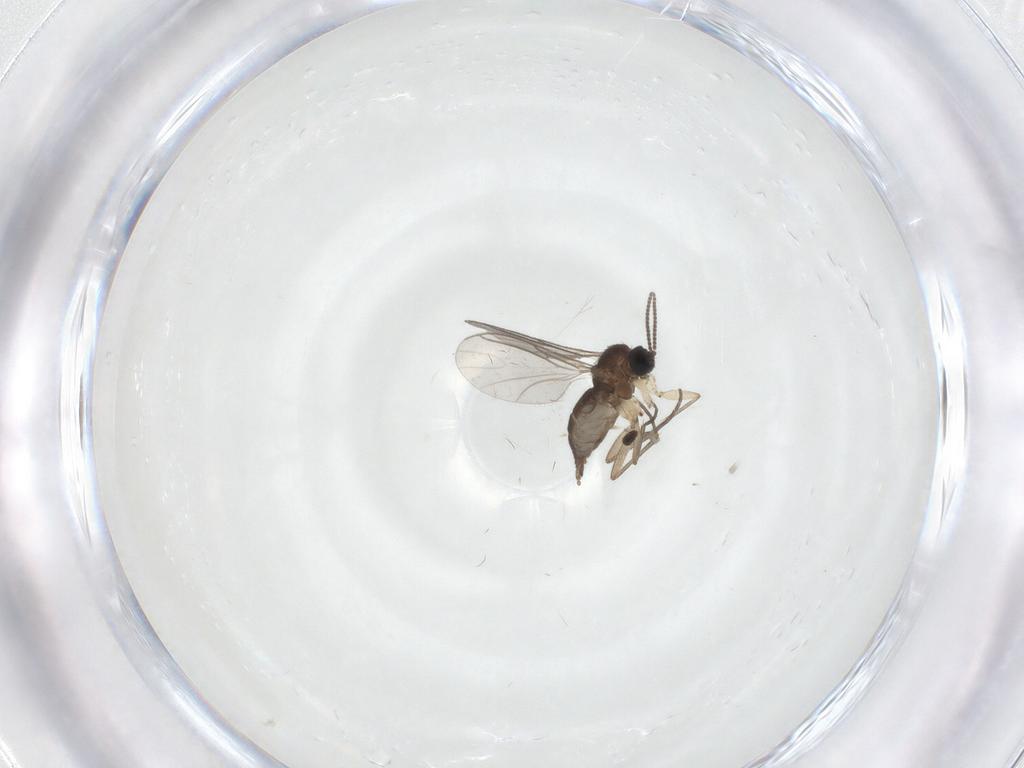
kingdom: Animalia
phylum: Arthropoda
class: Insecta
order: Diptera
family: Sciaridae
